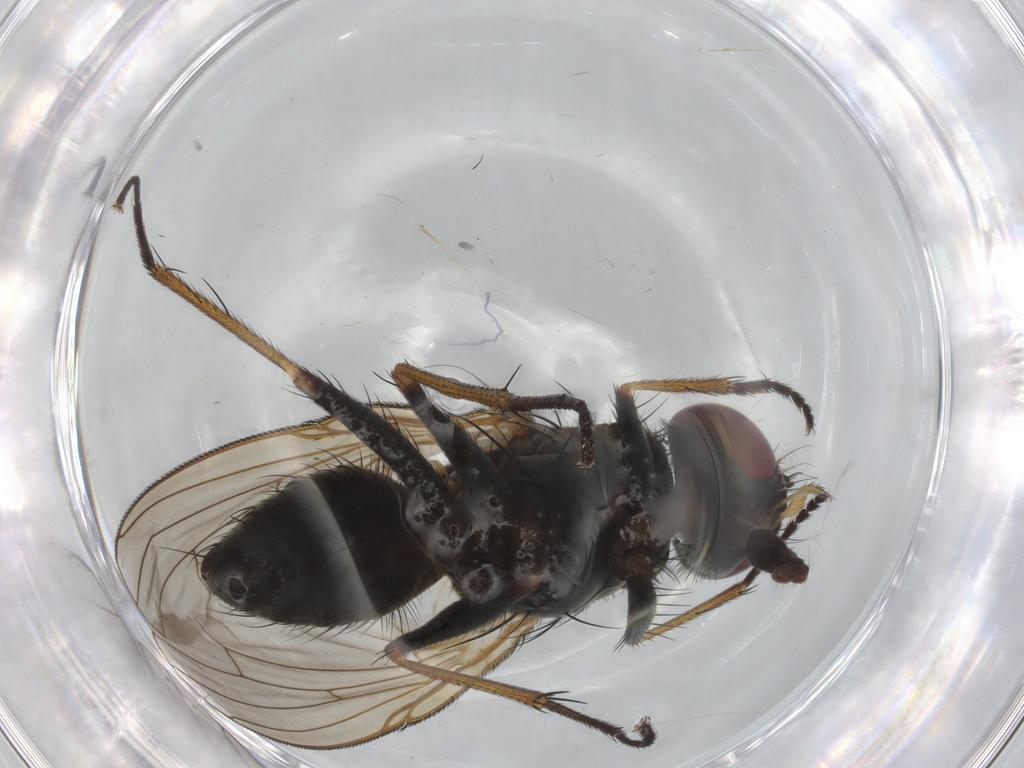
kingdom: Animalia
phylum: Arthropoda
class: Insecta
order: Diptera
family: Muscidae
